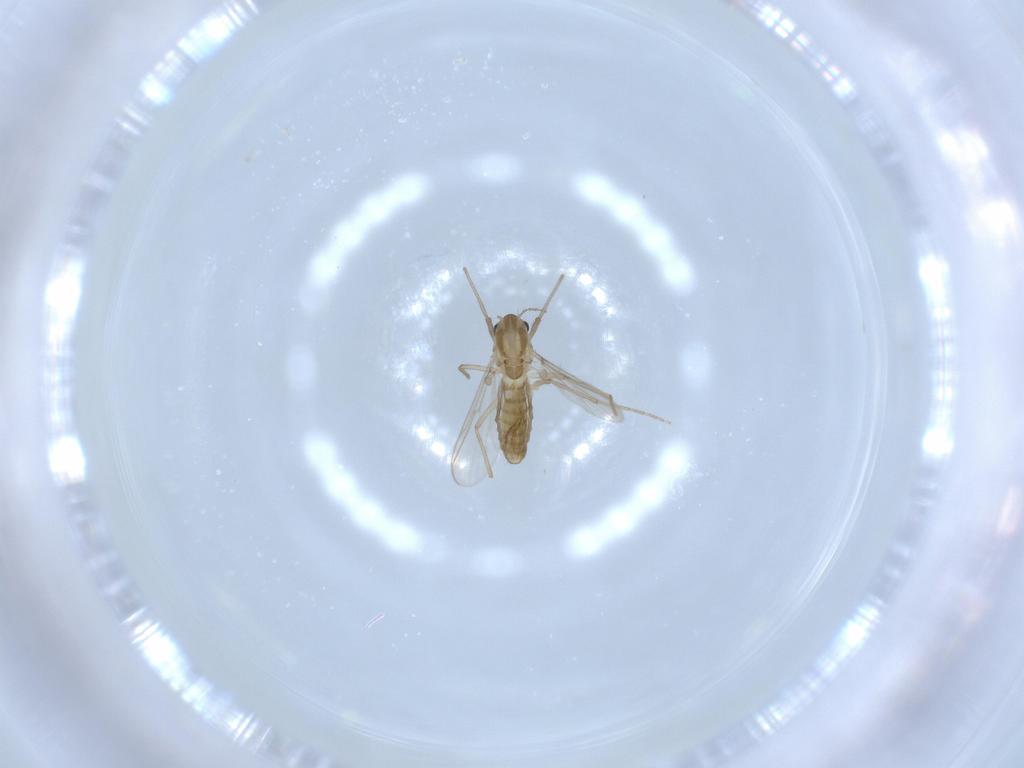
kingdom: Animalia
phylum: Arthropoda
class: Insecta
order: Diptera
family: Chironomidae
